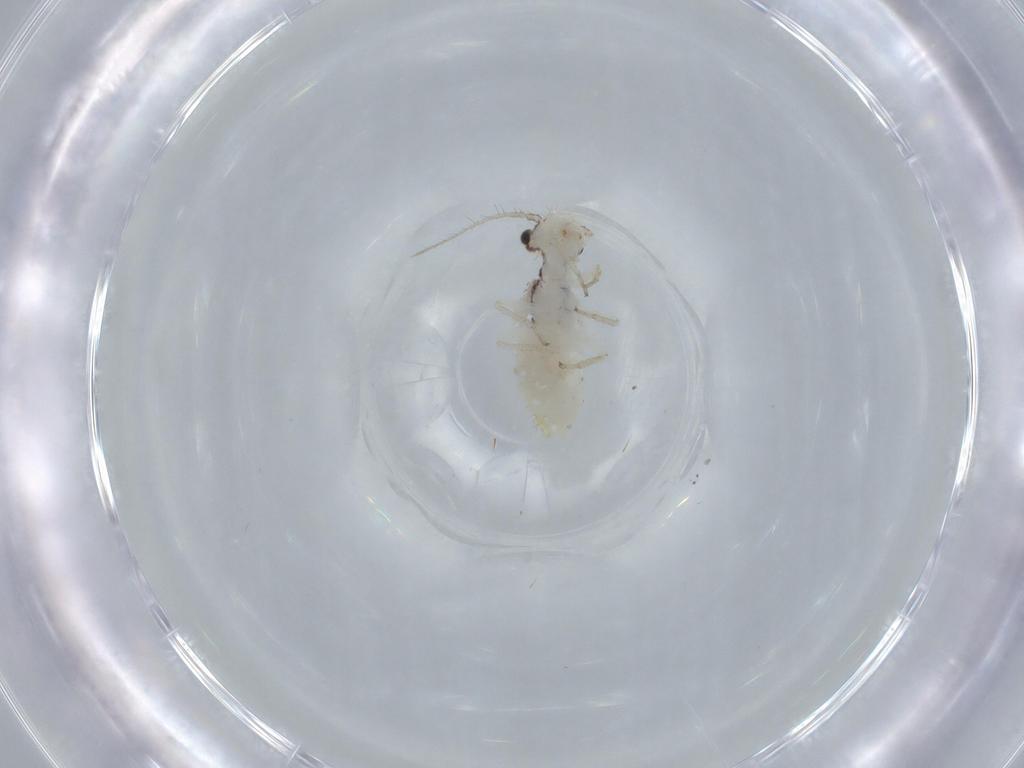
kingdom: Animalia
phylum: Arthropoda
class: Insecta
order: Psocodea
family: Pseudocaeciliidae
